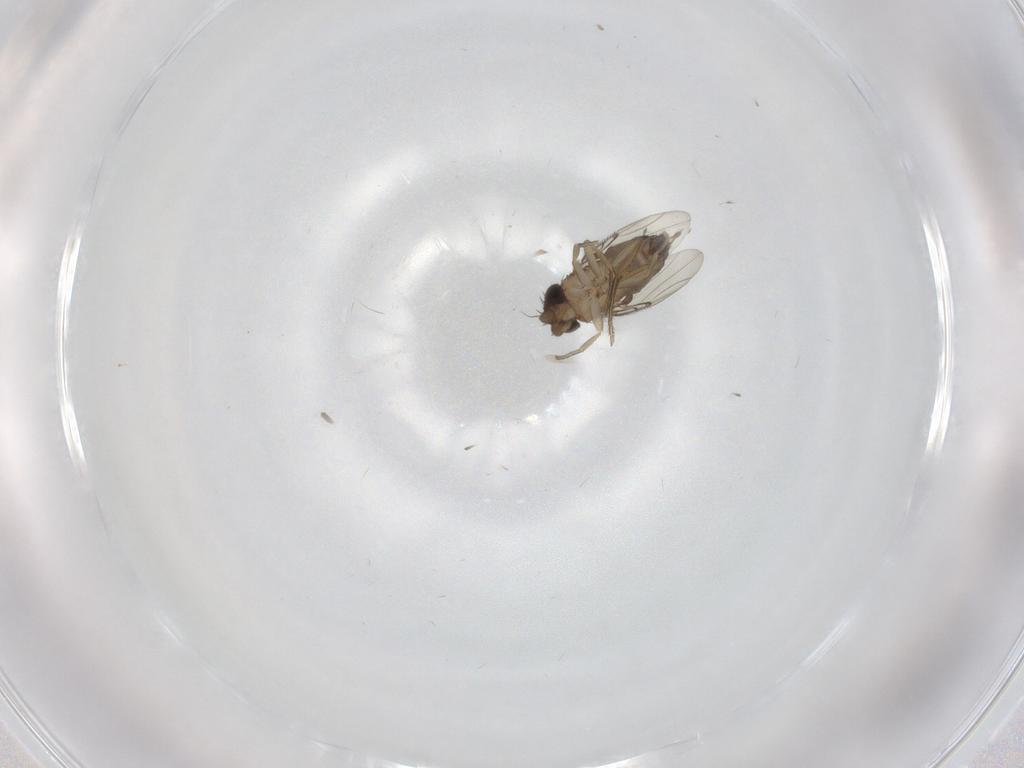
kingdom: Animalia
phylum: Arthropoda
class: Insecta
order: Diptera
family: Phoridae
